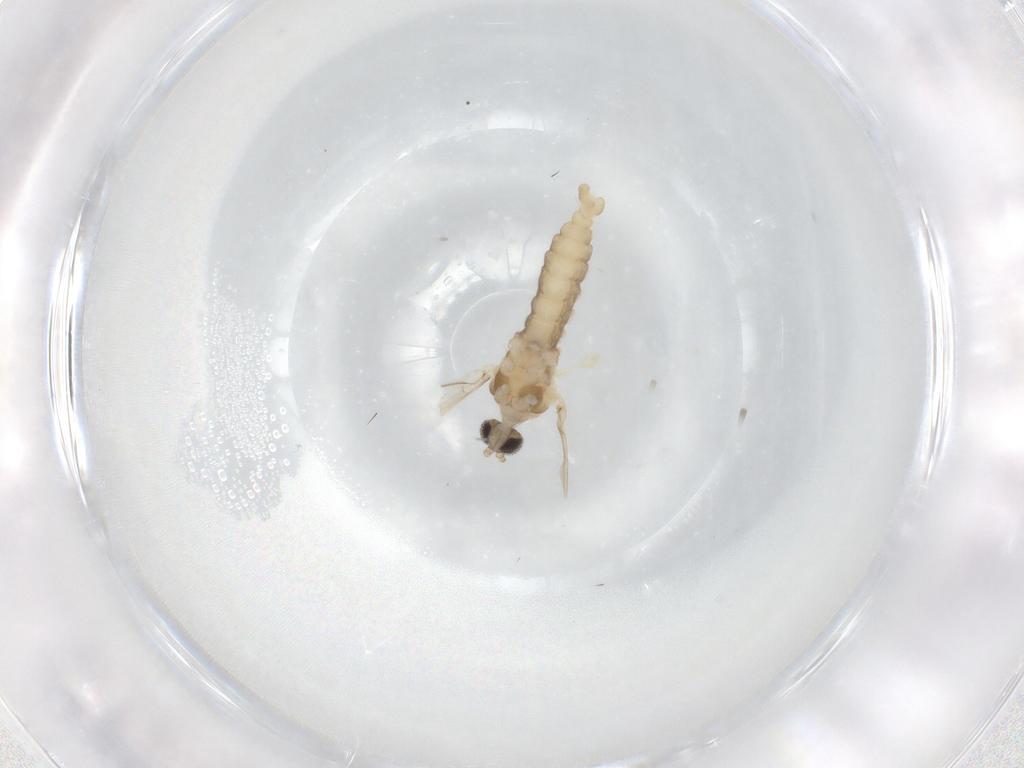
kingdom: Animalia
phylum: Arthropoda
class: Insecta
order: Diptera
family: Cecidomyiidae
